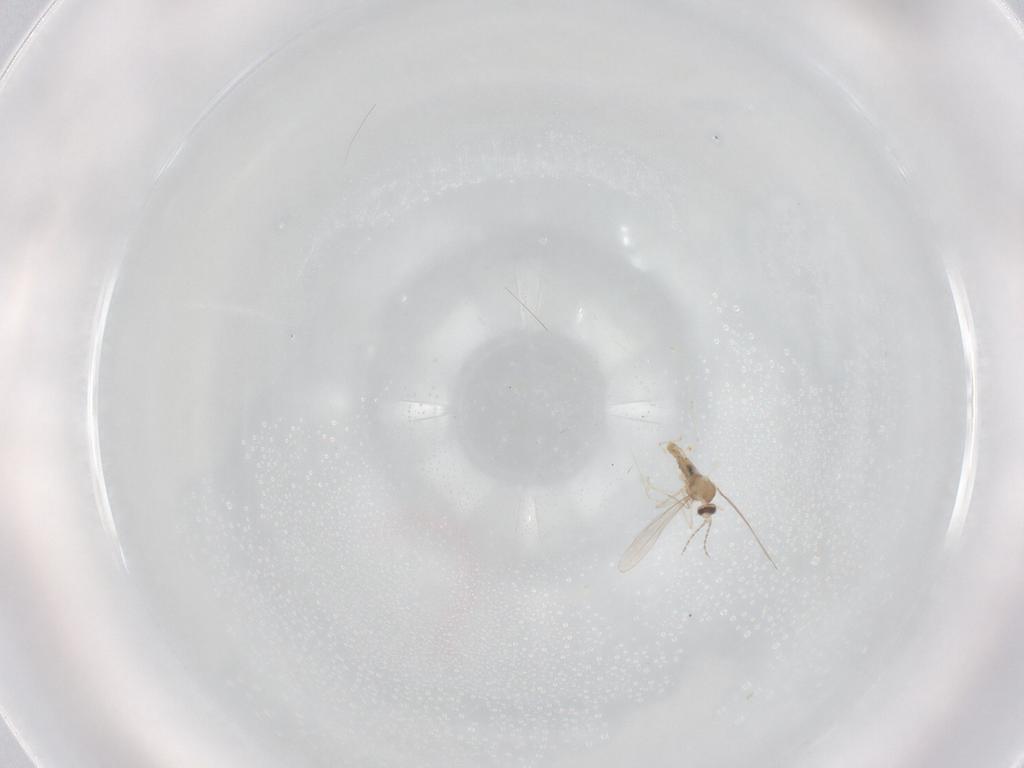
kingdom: Animalia
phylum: Arthropoda
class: Insecta
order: Diptera
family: Cecidomyiidae
